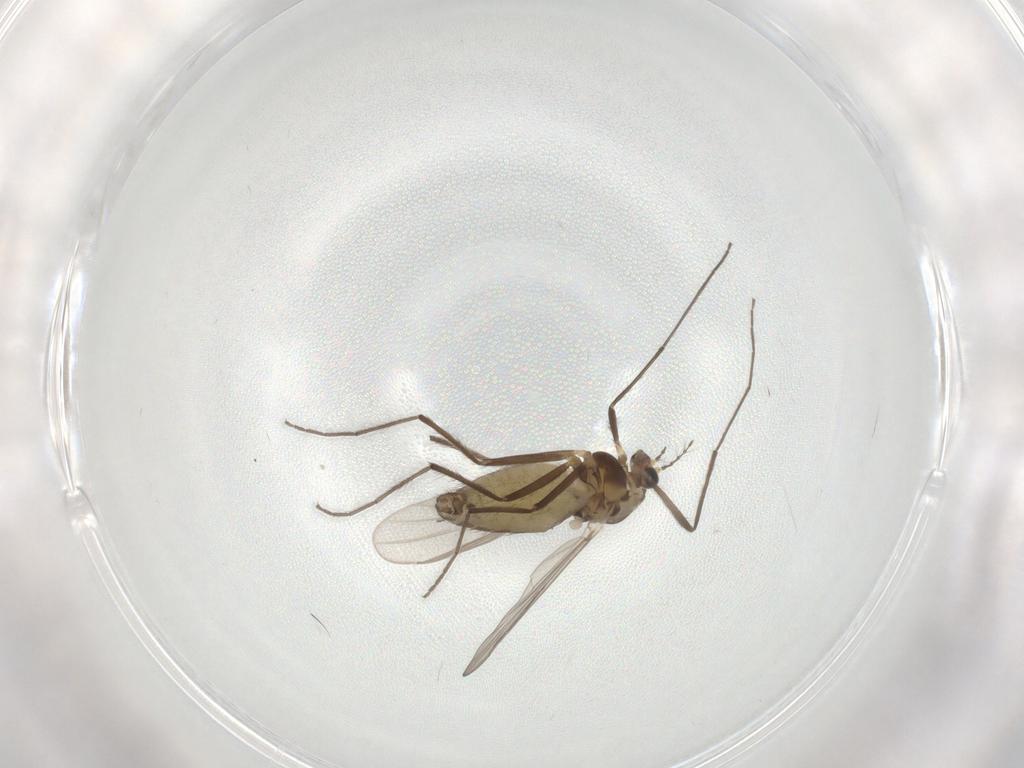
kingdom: Animalia
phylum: Arthropoda
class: Insecta
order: Diptera
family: Chironomidae
